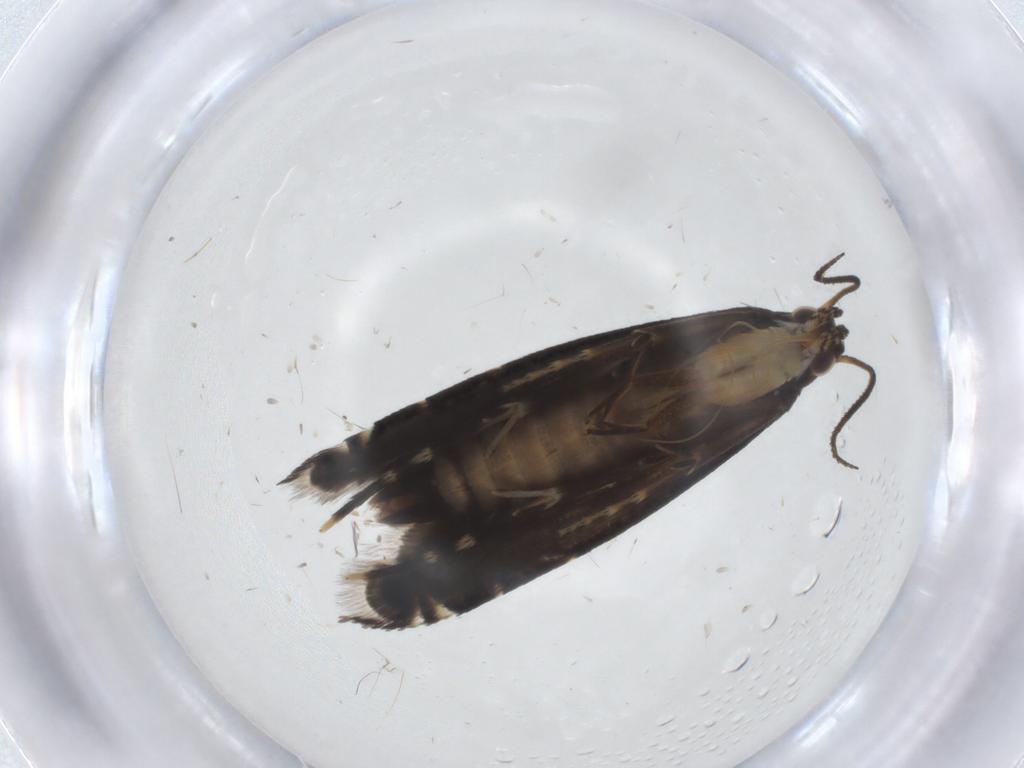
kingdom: Animalia
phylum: Arthropoda
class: Insecta
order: Lepidoptera
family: Glyphipterigidae
